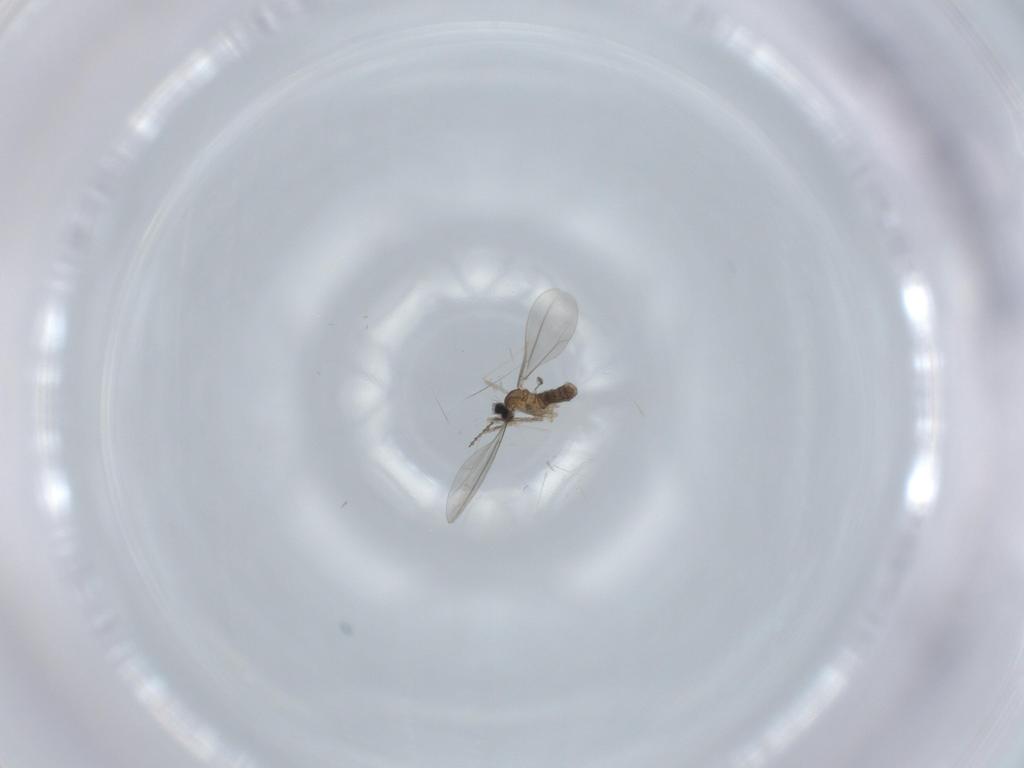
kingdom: Animalia
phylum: Arthropoda
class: Insecta
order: Diptera
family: Cecidomyiidae
